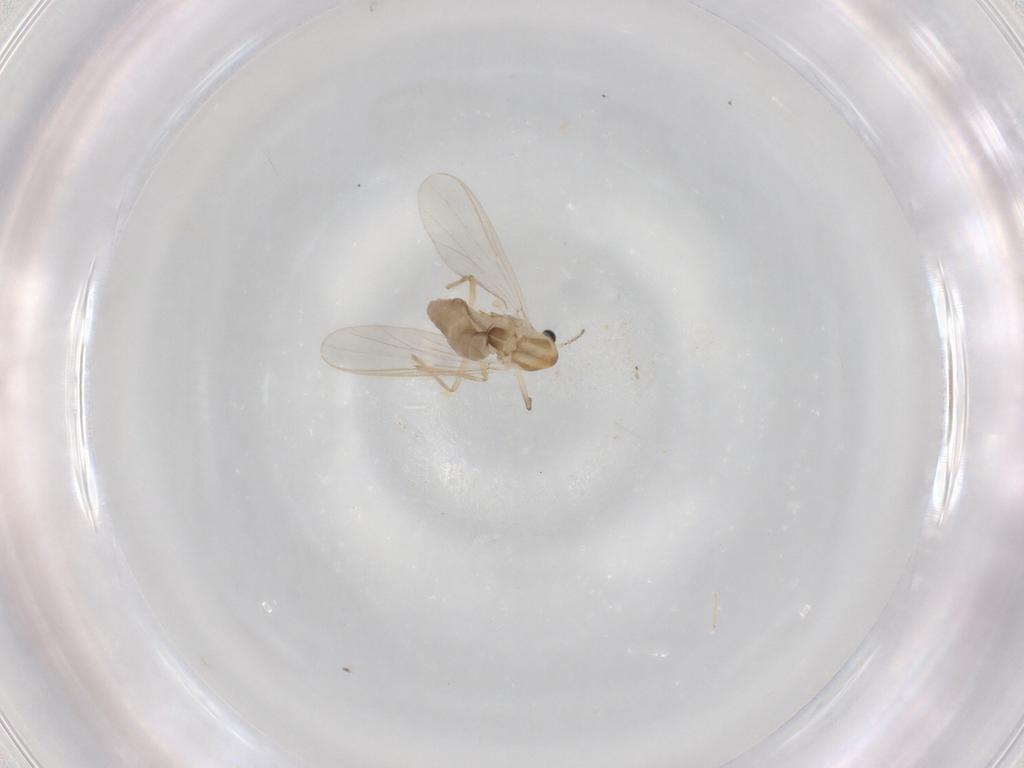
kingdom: Animalia
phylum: Arthropoda
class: Insecta
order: Diptera
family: Chironomidae
